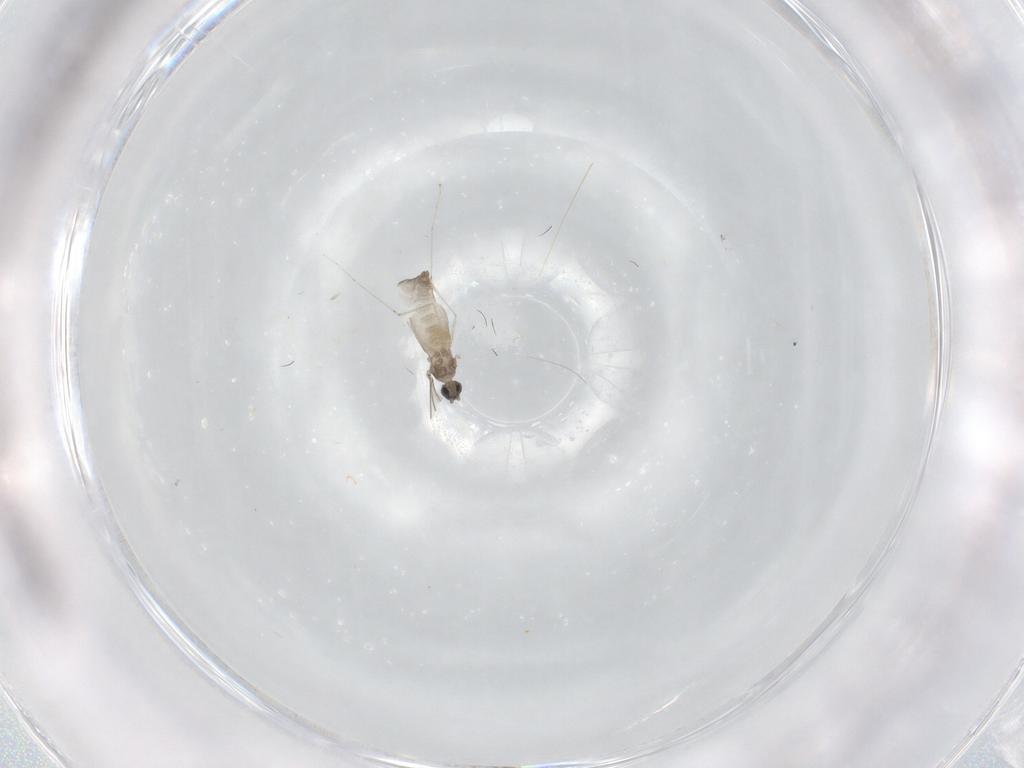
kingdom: Animalia
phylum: Arthropoda
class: Insecta
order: Diptera
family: Cecidomyiidae
